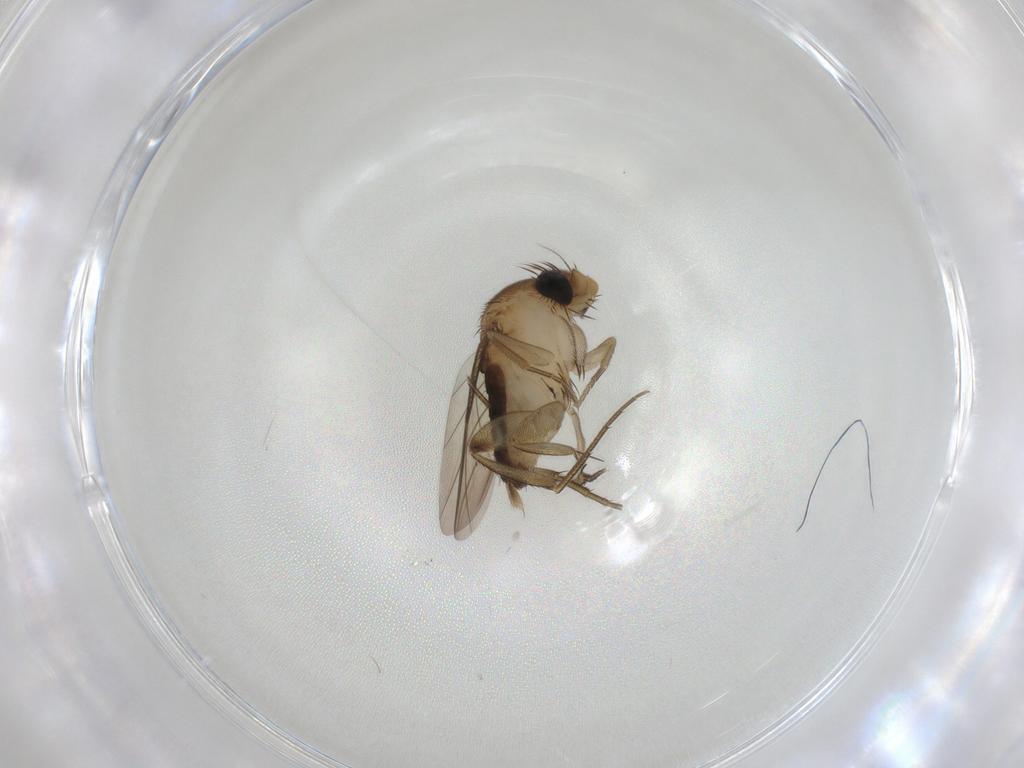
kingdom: Animalia
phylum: Arthropoda
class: Insecta
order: Diptera
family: Phoridae
